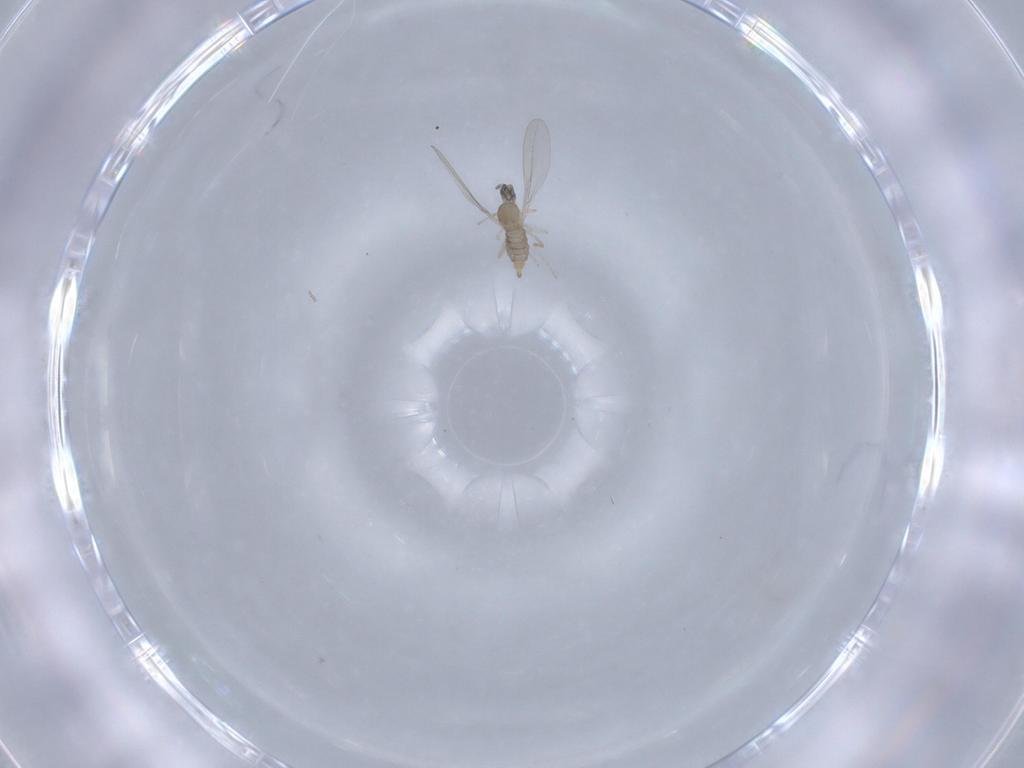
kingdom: Animalia
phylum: Arthropoda
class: Insecta
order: Diptera
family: Cecidomyiidae
